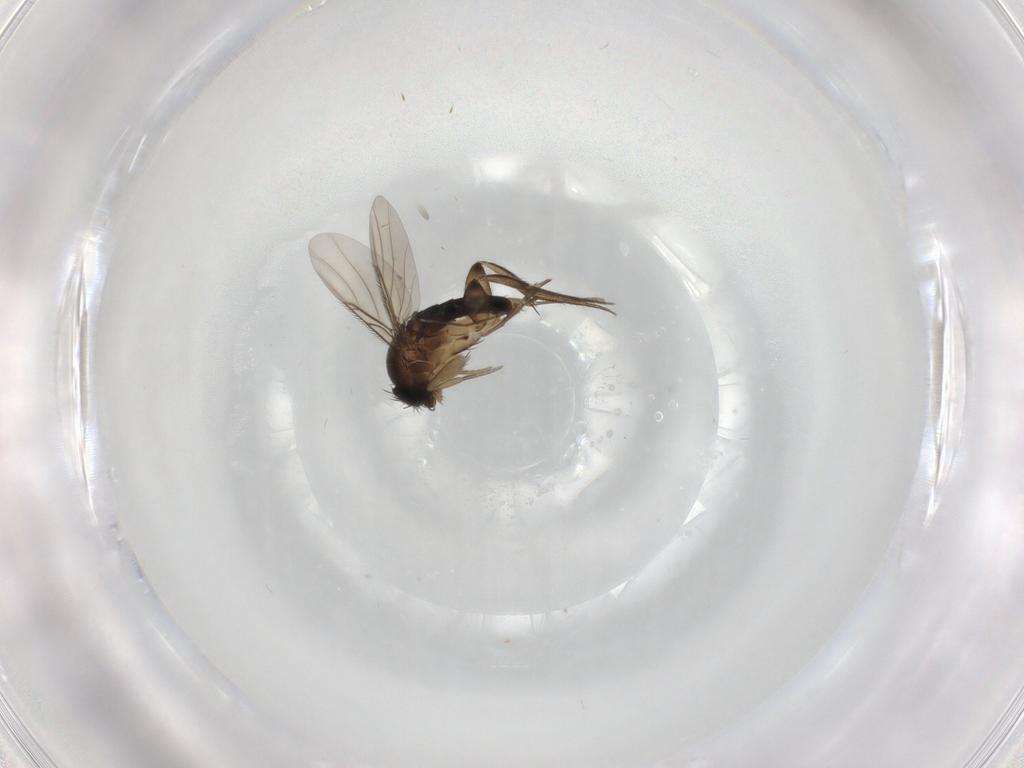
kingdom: Animalia
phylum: Arthropoda
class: Insecta
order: Diptera
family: Phoridae
